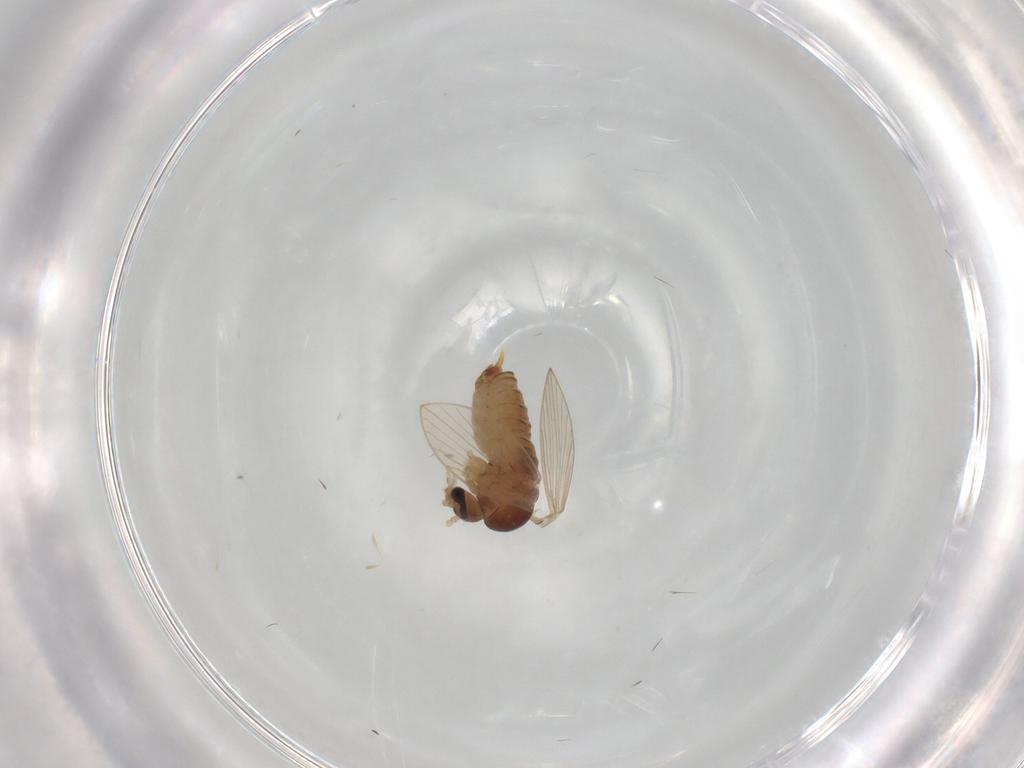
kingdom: Animalia
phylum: Arthropoda
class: Insecta
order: Diptera
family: Psychodidae
